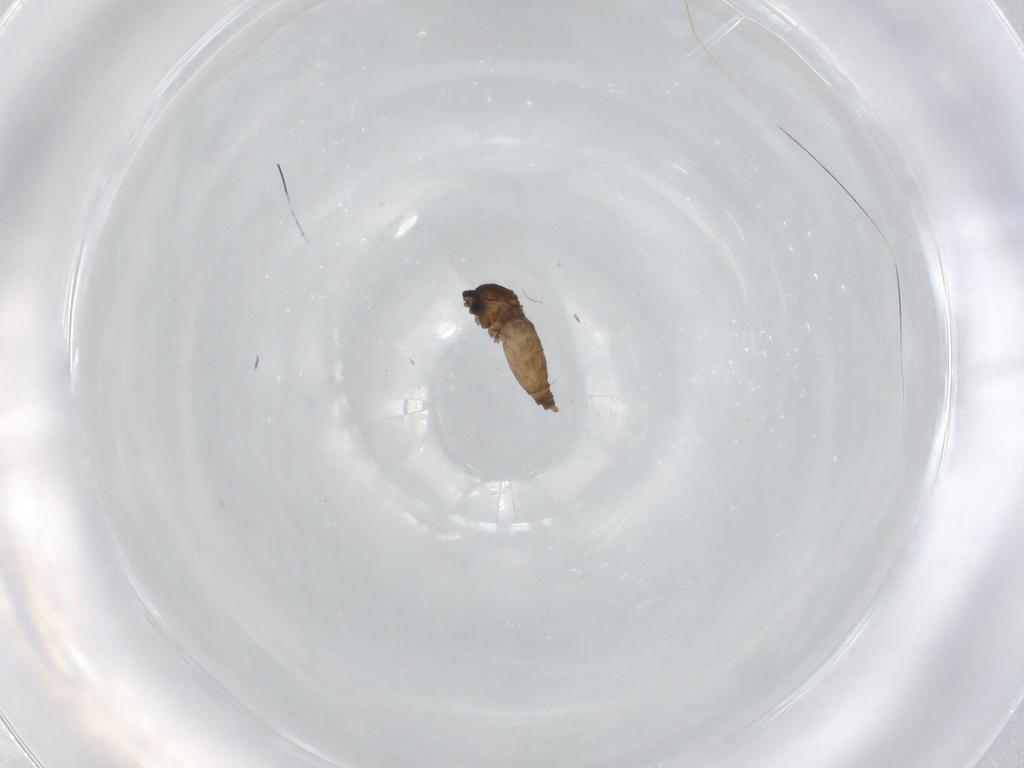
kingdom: Animalia
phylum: Arthropoda
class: Insecta
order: Diptera
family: Cecidomyiidae
